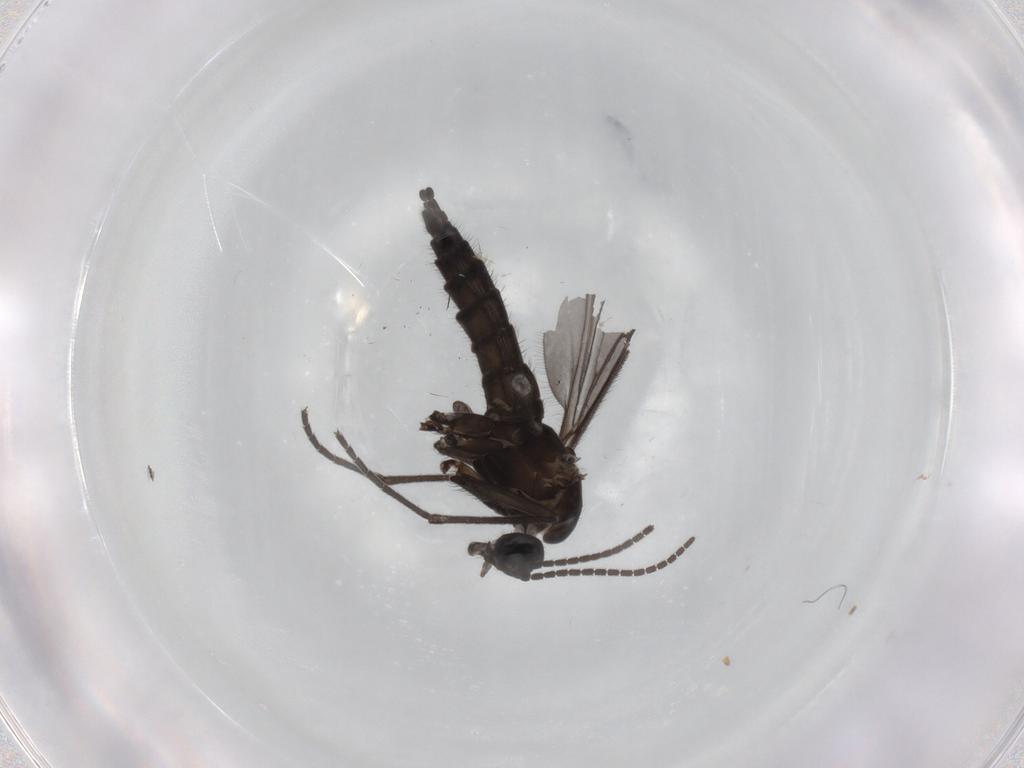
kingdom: Animalia
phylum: Arthropoda
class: Insecta
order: Diptera
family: Sciaridae
